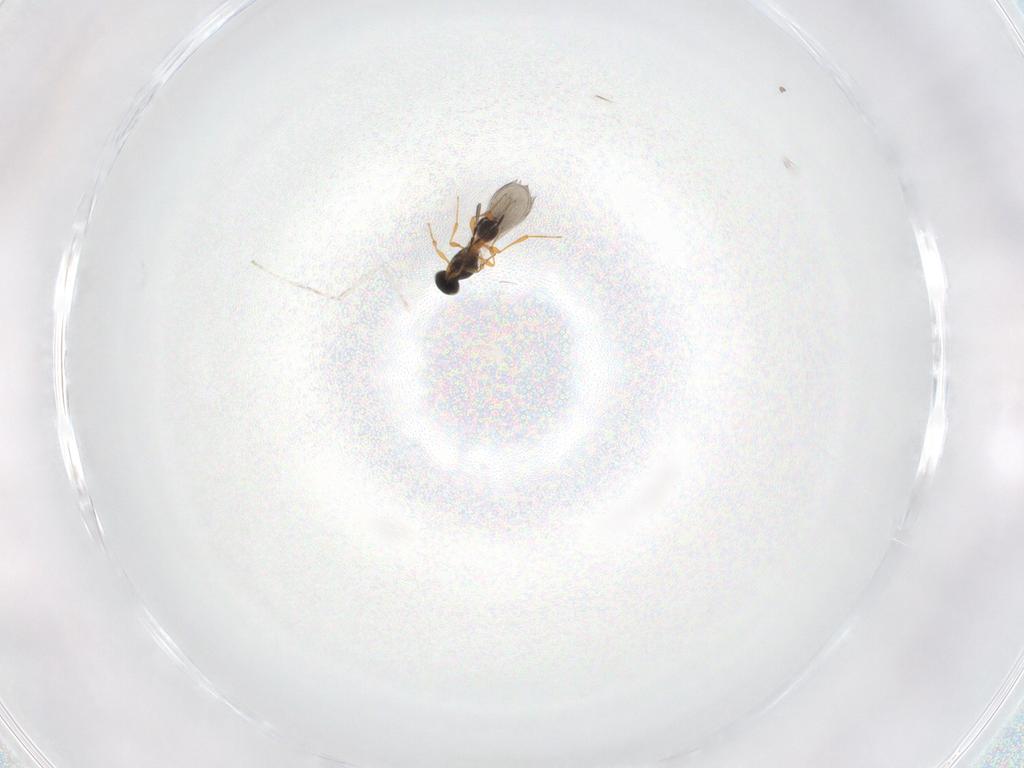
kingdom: Animalia
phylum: Arthropoda
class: Insecta
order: Hymenoptera
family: Platygastridae
